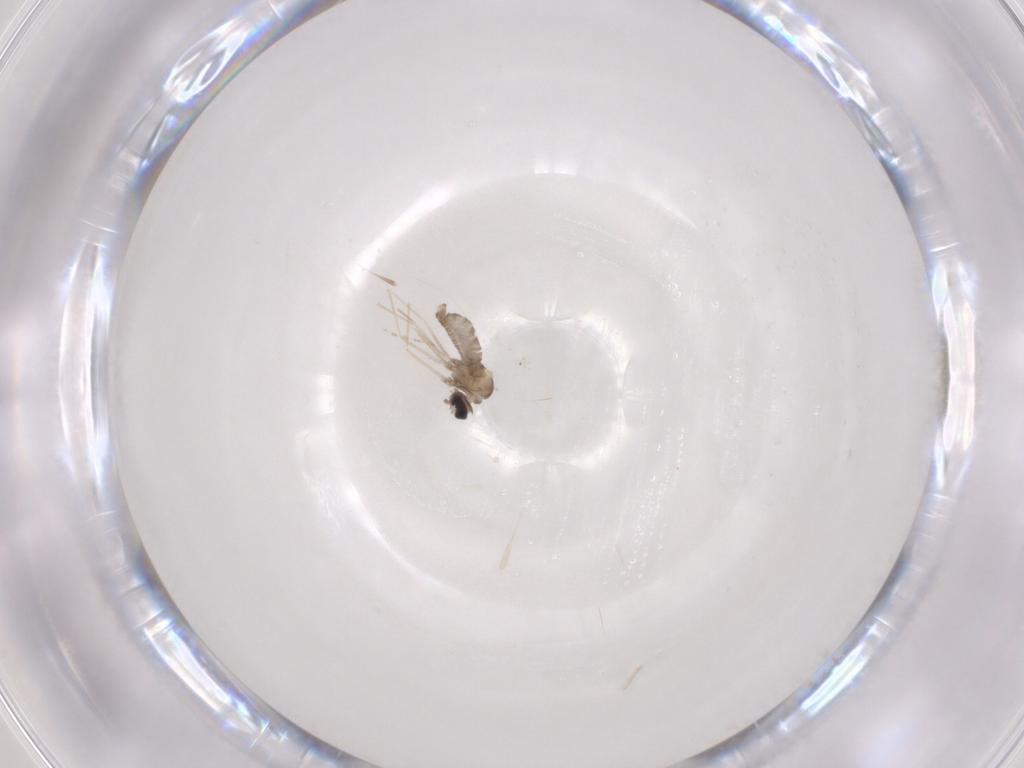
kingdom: Animalia
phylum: Arthropoda
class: Insecta
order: Diptera
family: Cecidomyiidae
